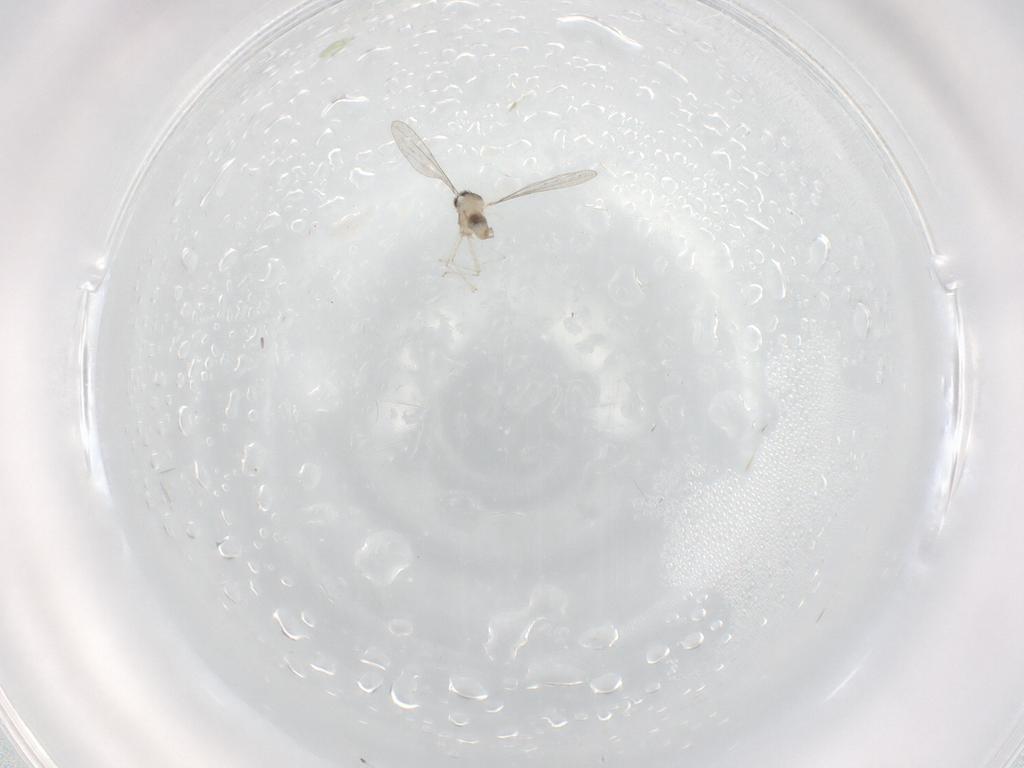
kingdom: Animalia
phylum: Arthropoda
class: Insecta
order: Diptera
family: Cecidomyiidae
